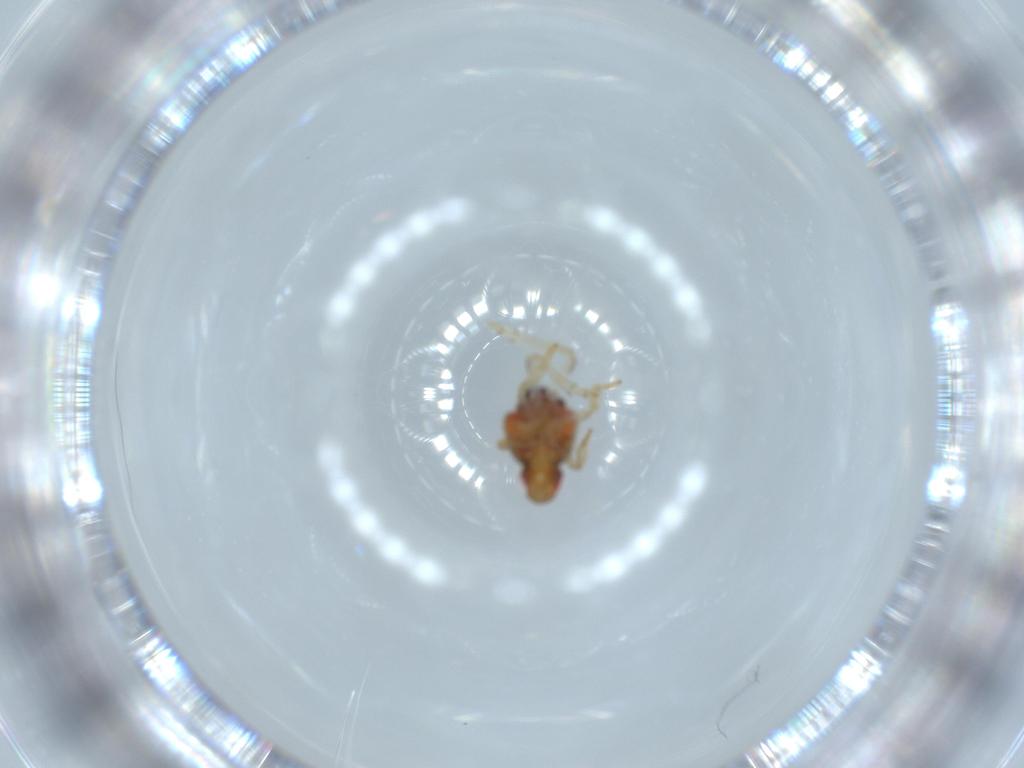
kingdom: Animalia
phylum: Arthropoda
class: Insecta
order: Hemiptera
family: Issidae
